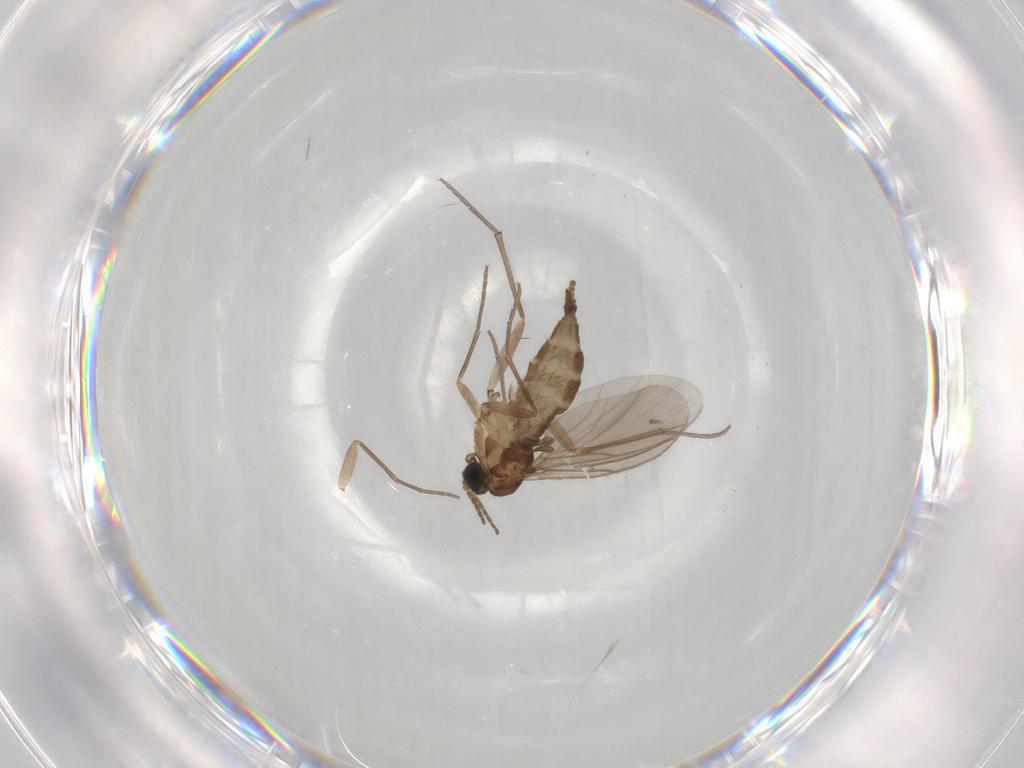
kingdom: Animalia
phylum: Arthropoda
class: Insecta
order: Diptera
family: Sciaridae
